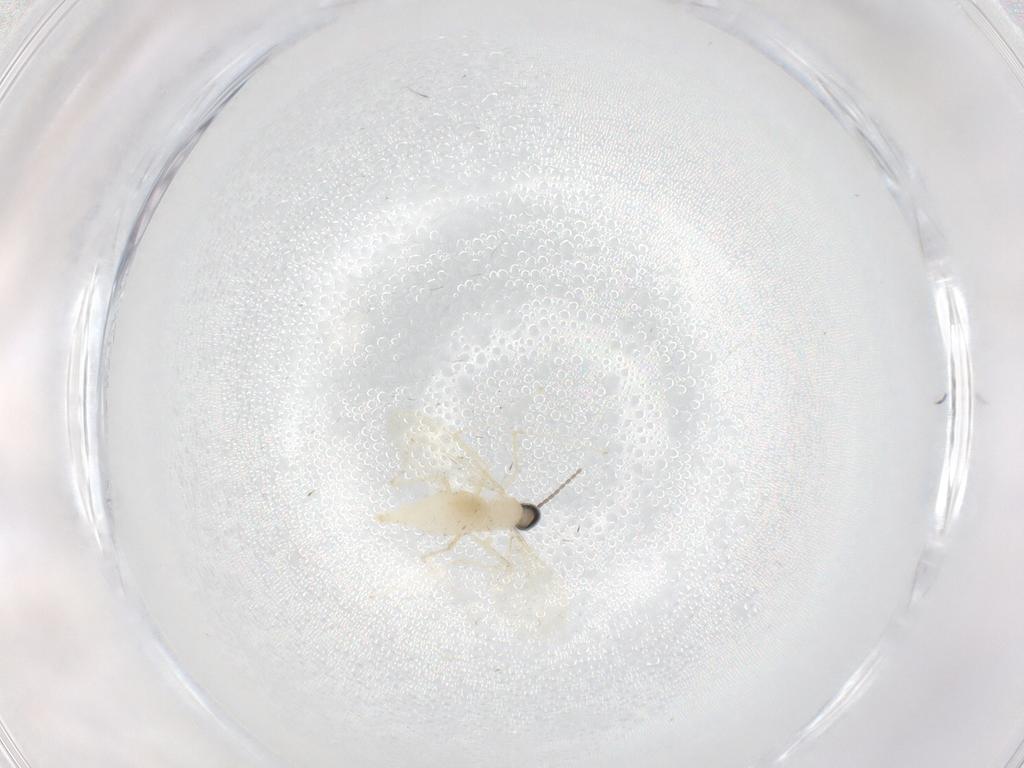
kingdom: Animalia
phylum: Arthropoda
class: Insecta
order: Diptera
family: Cecidomyiidae
